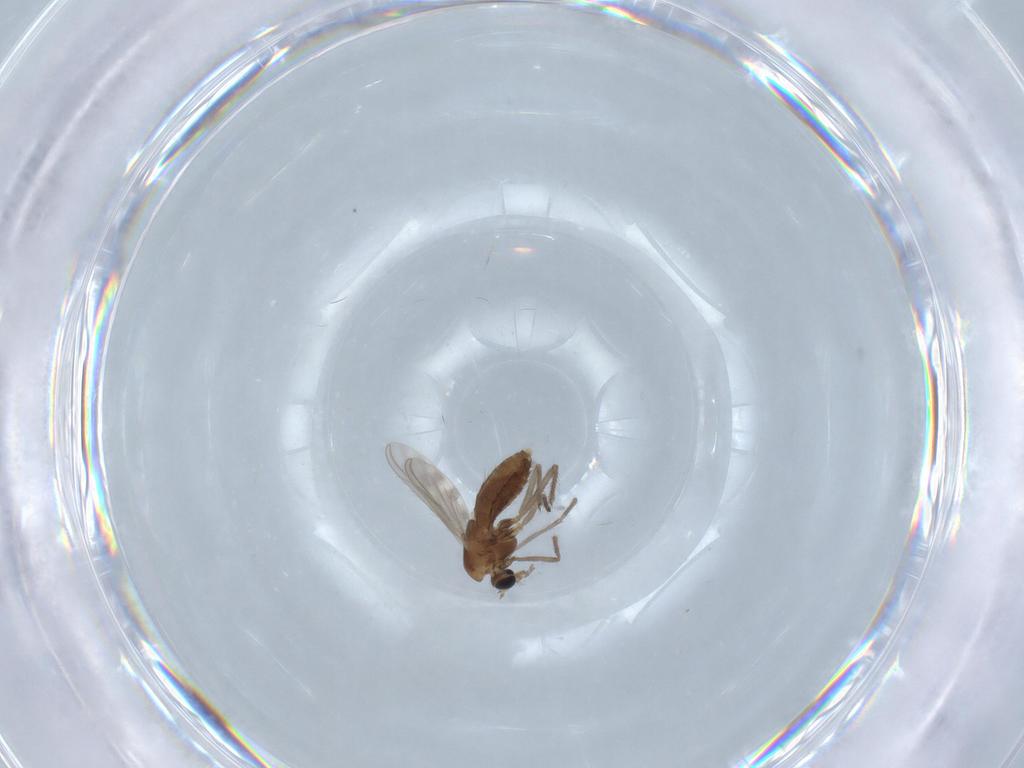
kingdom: Animalia
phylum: Arthropoda
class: Insecta
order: Diptera
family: Chironomidae
